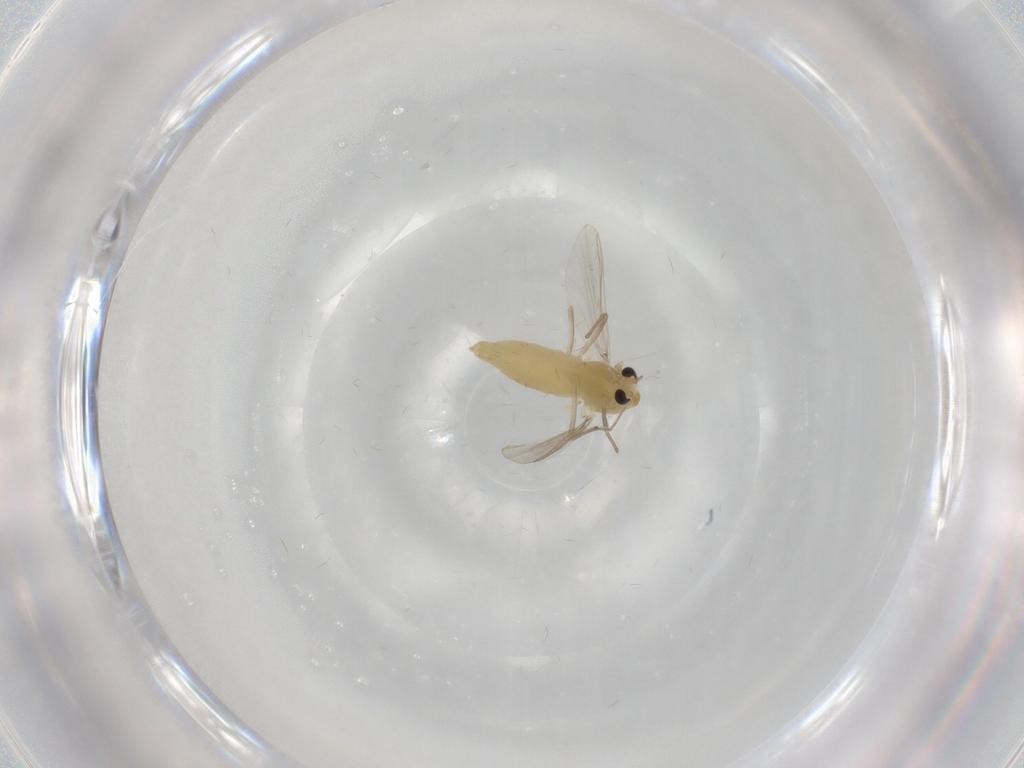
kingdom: Animalia
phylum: Arthropoda
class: Insecta
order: Diptera
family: Chironomidae
